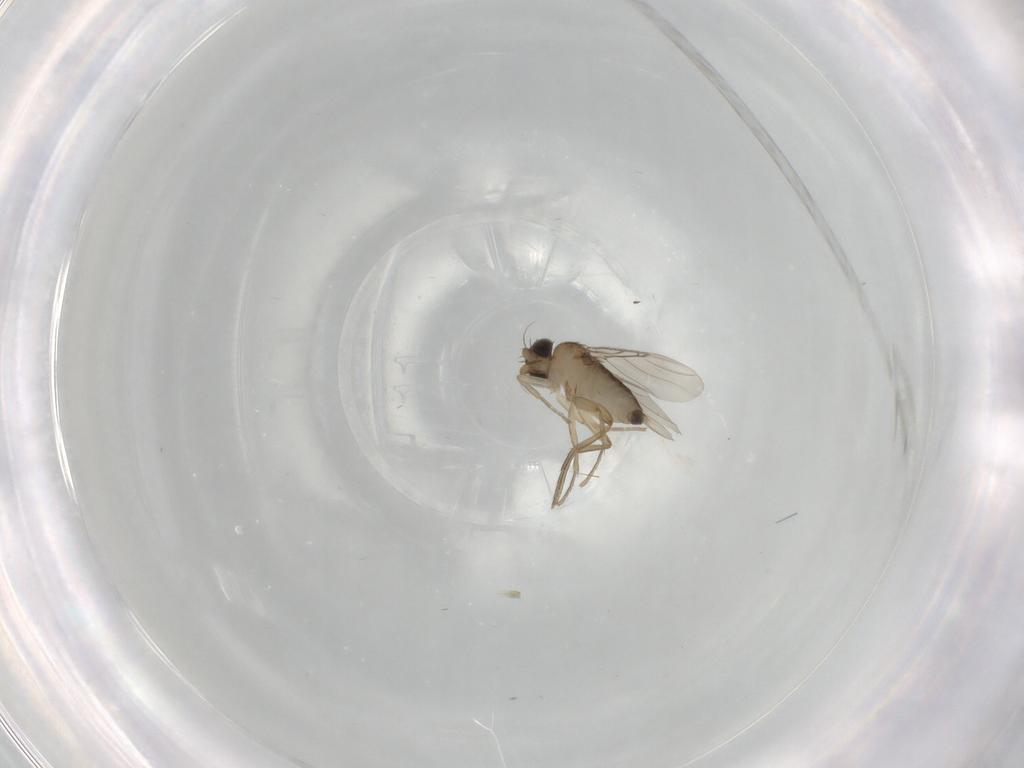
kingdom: Animalia
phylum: Arthropoda
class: Insecta
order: Diptera
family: Phoridae
